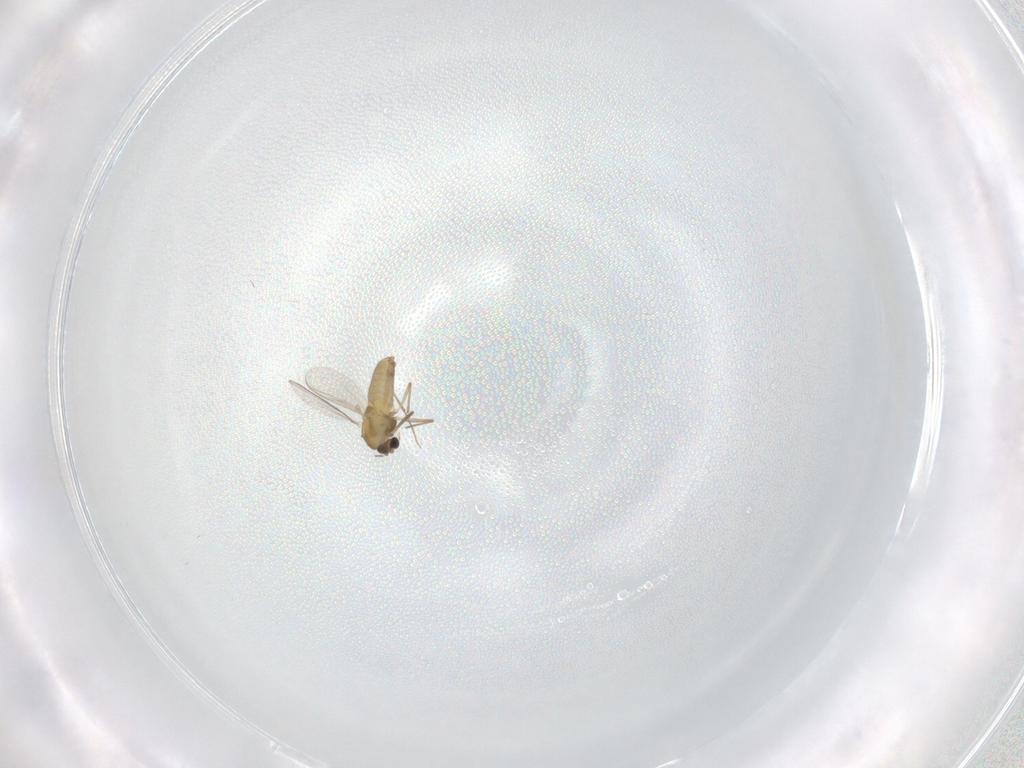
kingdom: Animalia
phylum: Arthropoda
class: Insecta
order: Diptera
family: Chironomidae
